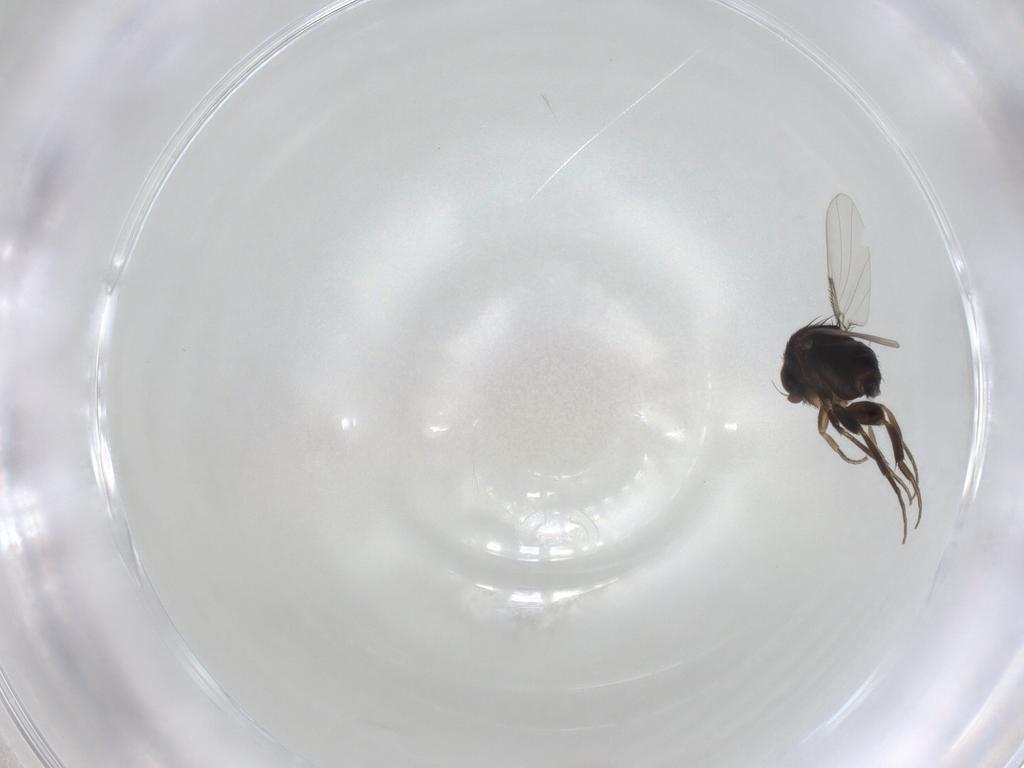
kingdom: Animalia
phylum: Arthropoda
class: Insecta
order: Diptera
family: Phoridae
